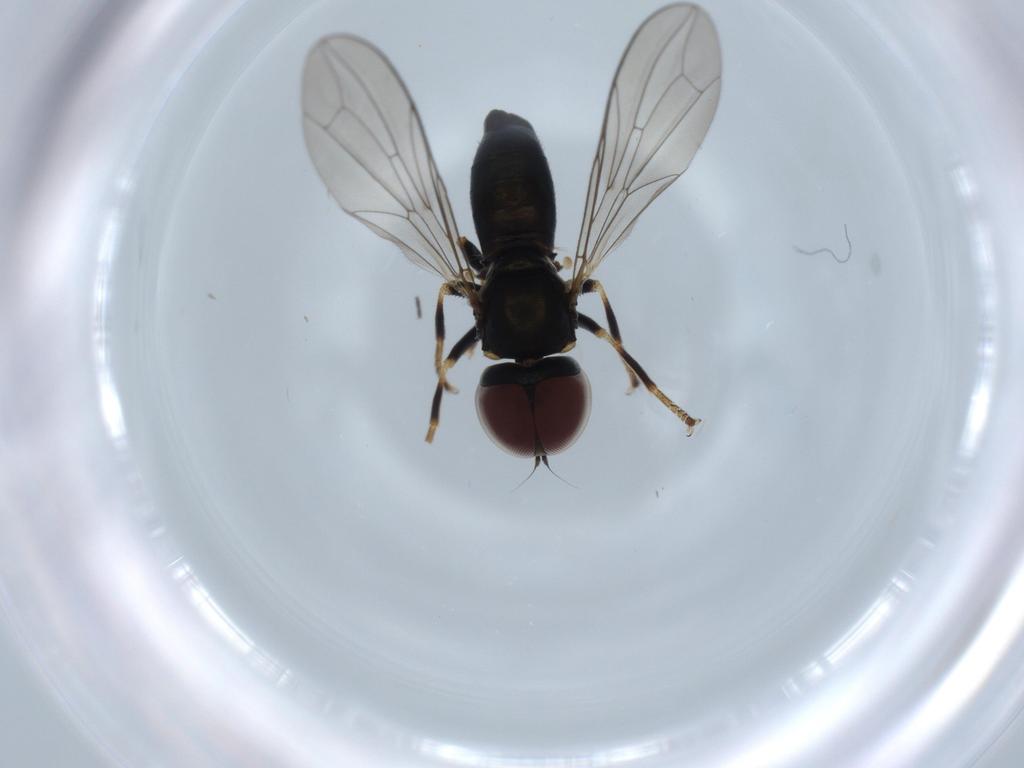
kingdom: Animalia
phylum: Arthropoda
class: Insecta
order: Diptera
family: Pipunculidae
